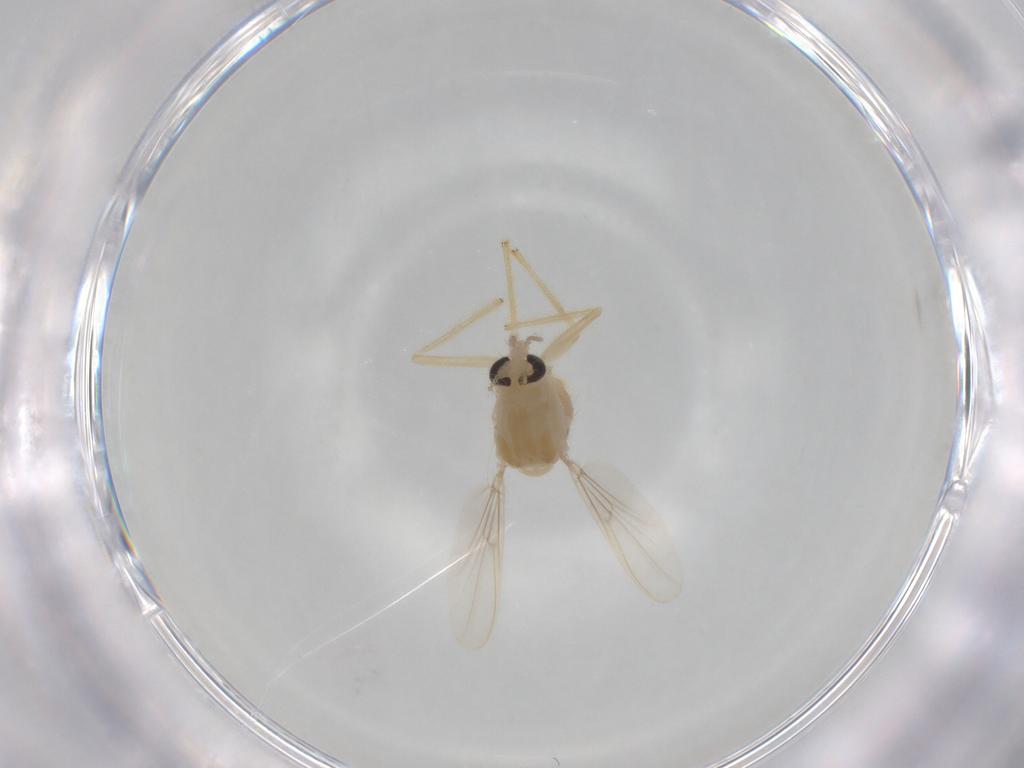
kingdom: Animalia
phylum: Arthropoda
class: Insecta
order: Diptera
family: Chironomidae
